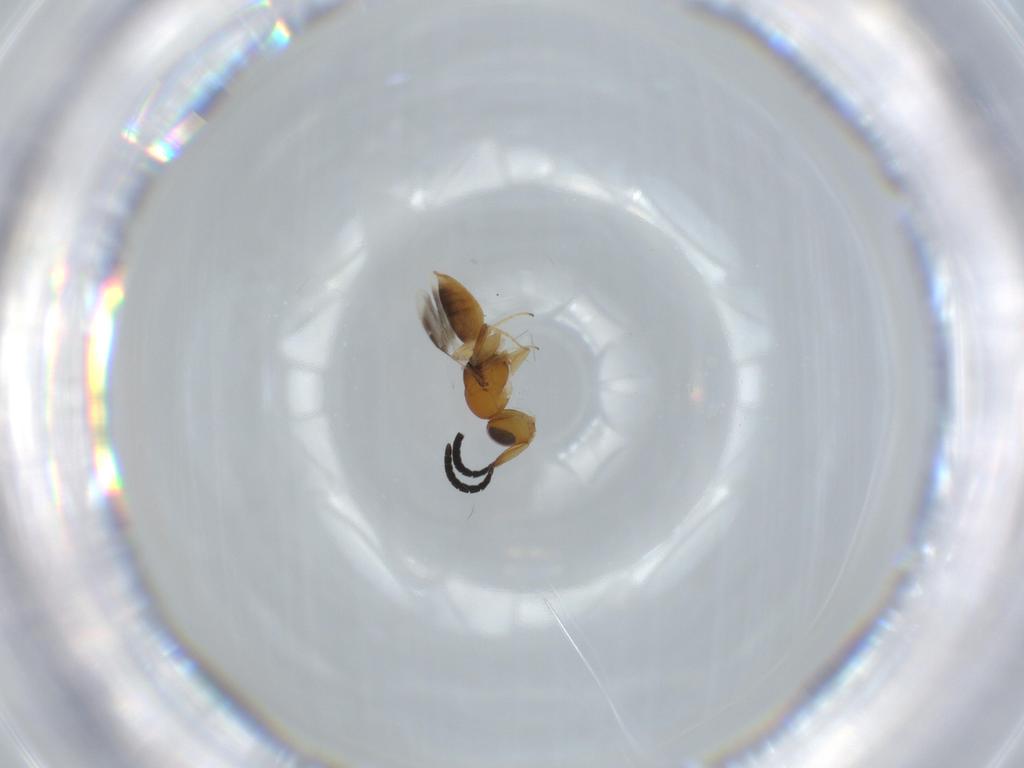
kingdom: Animalia
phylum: Arthropoda
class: Insecta
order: Hymenoptera
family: Megaspilidae
